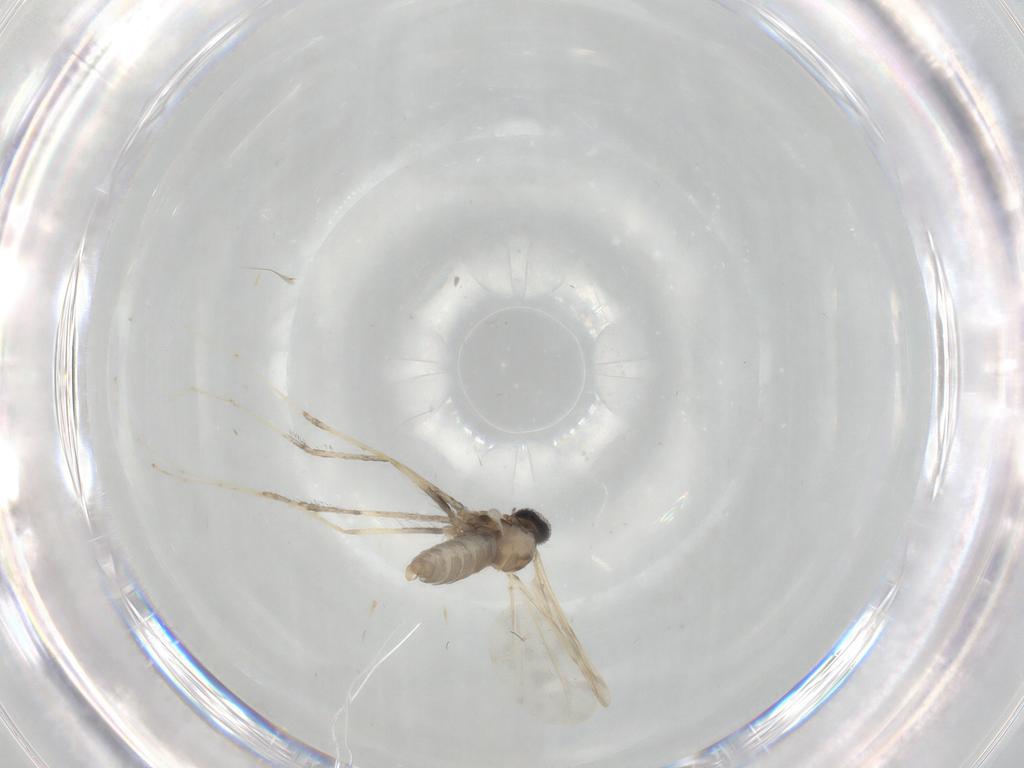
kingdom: Animalia
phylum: Arthropoda
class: Insecta
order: Diptera
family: Cecidomyiidae
